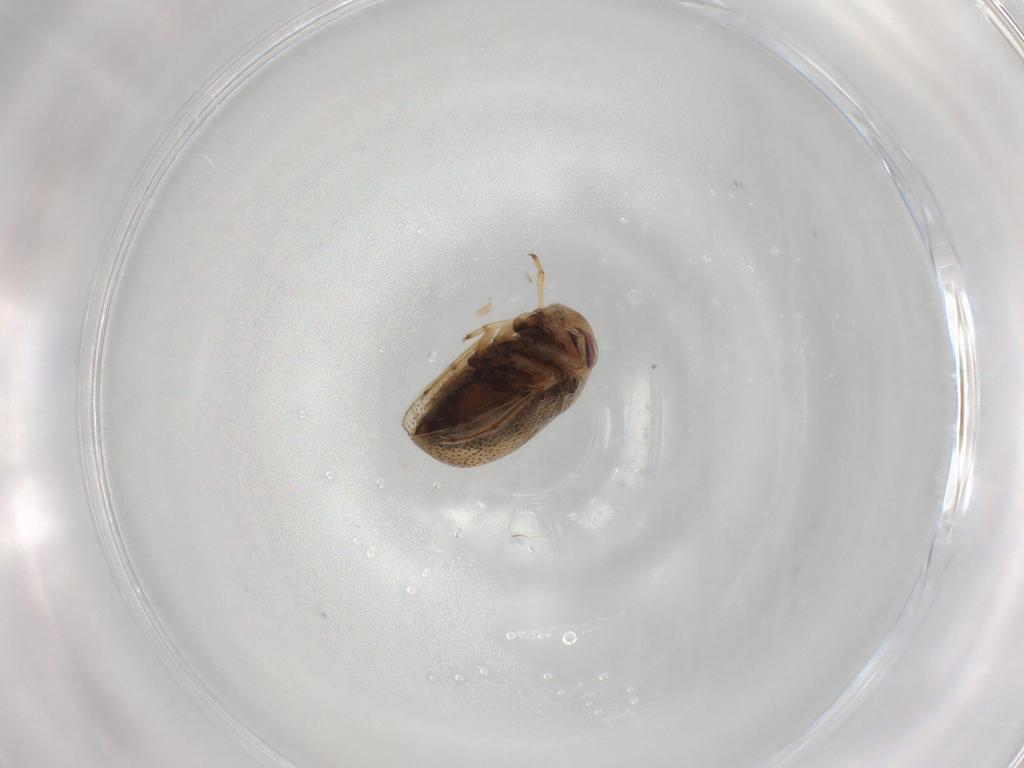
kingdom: Animalia
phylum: Arthropoda
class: Insecta
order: Hemiptera
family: Pleidae
